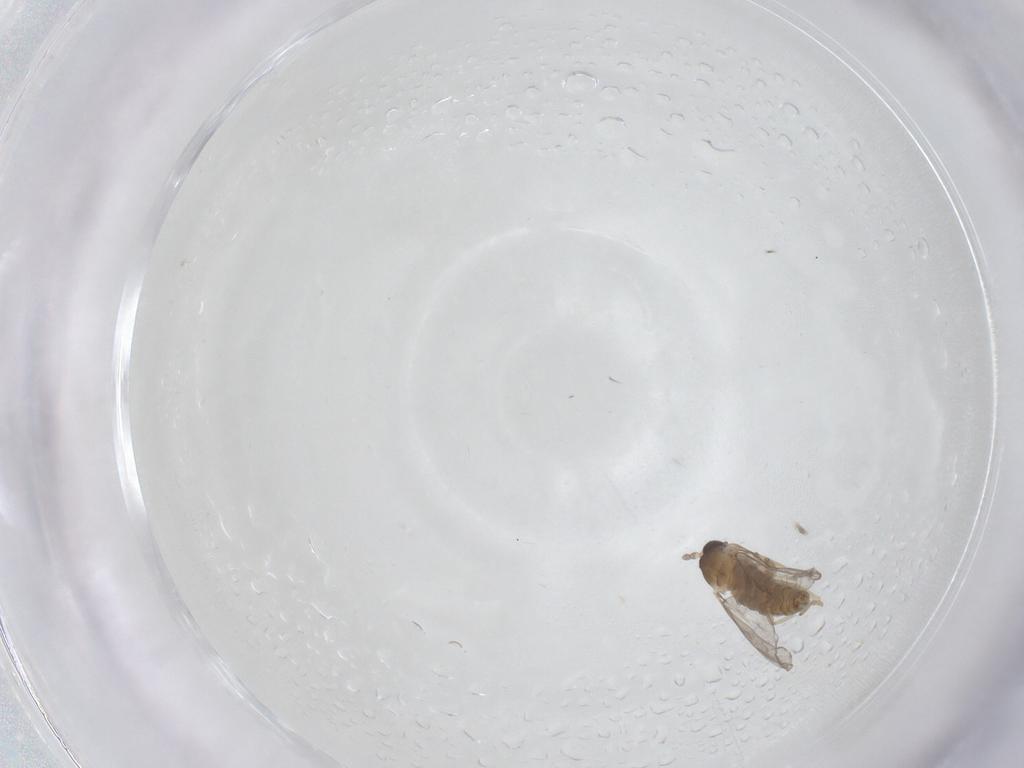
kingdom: Animalia
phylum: Arthropoda
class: Insecta
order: Diptera
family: Cecidomyiidae
